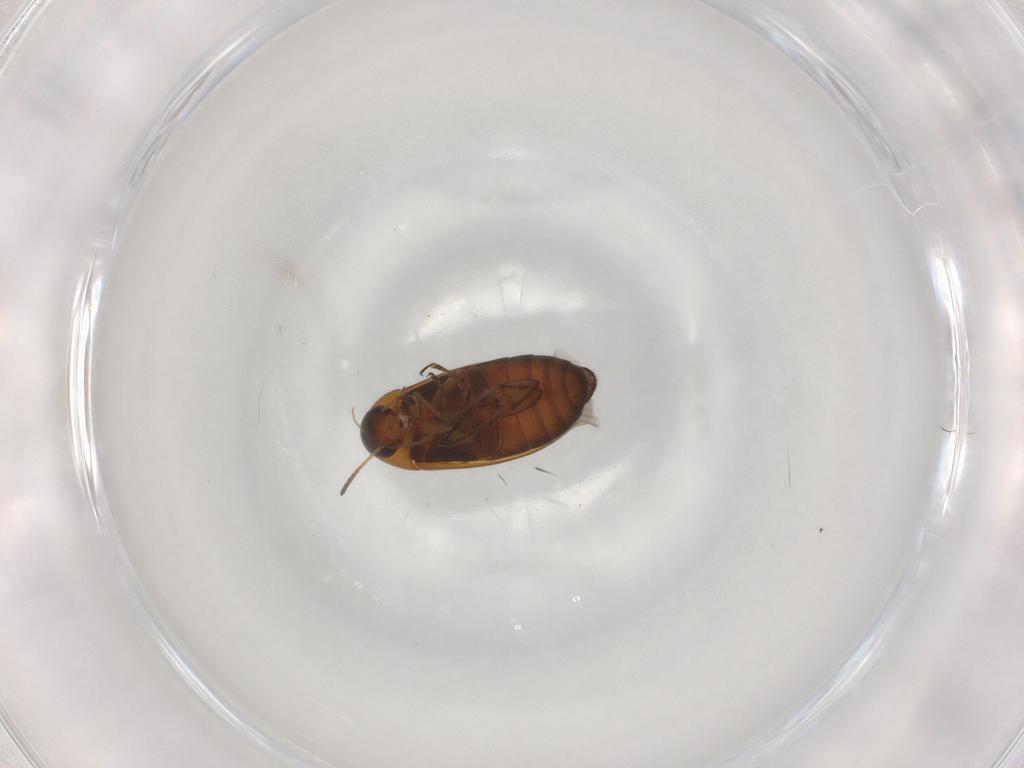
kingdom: Animalia
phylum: Arthropoda
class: Insecta
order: Coleoptera
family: Scraptiidae
